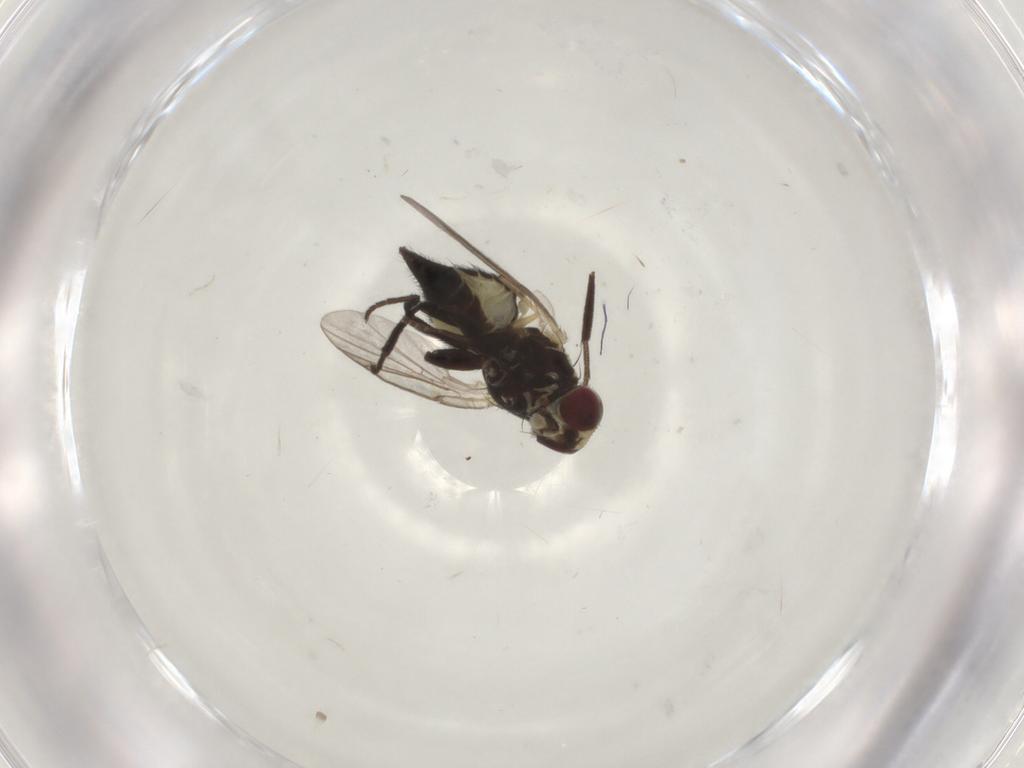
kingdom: Animalia
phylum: Arthropoda
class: Insecta
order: Diptera
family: Agromyzidae
